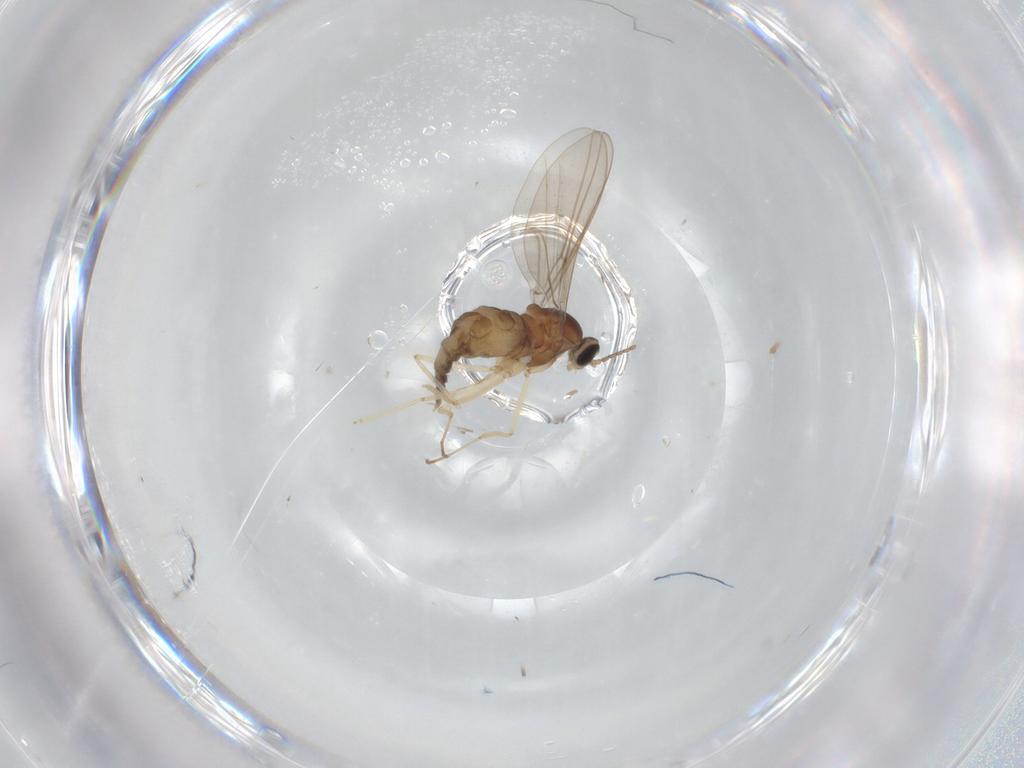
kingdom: Animalia
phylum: Arthropoda
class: Insecta
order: Diptera
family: Cecidomyiidae
